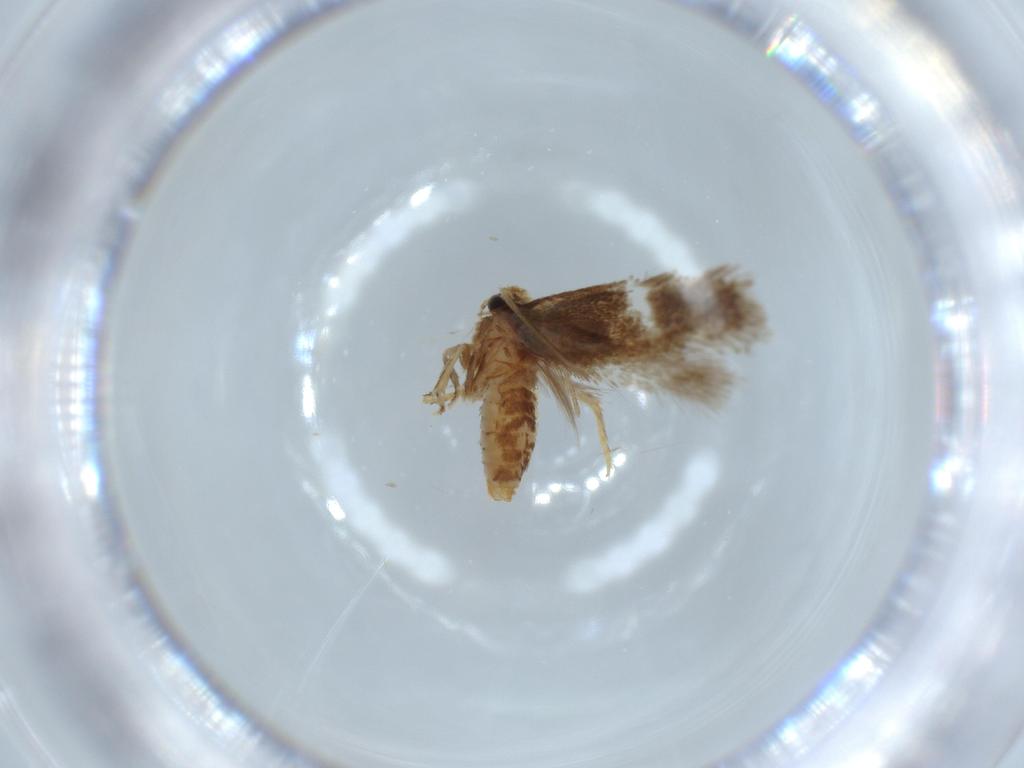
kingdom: Animalia
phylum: Arthropoda
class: Insecta
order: Lepidoptera
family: Nepticulidae
